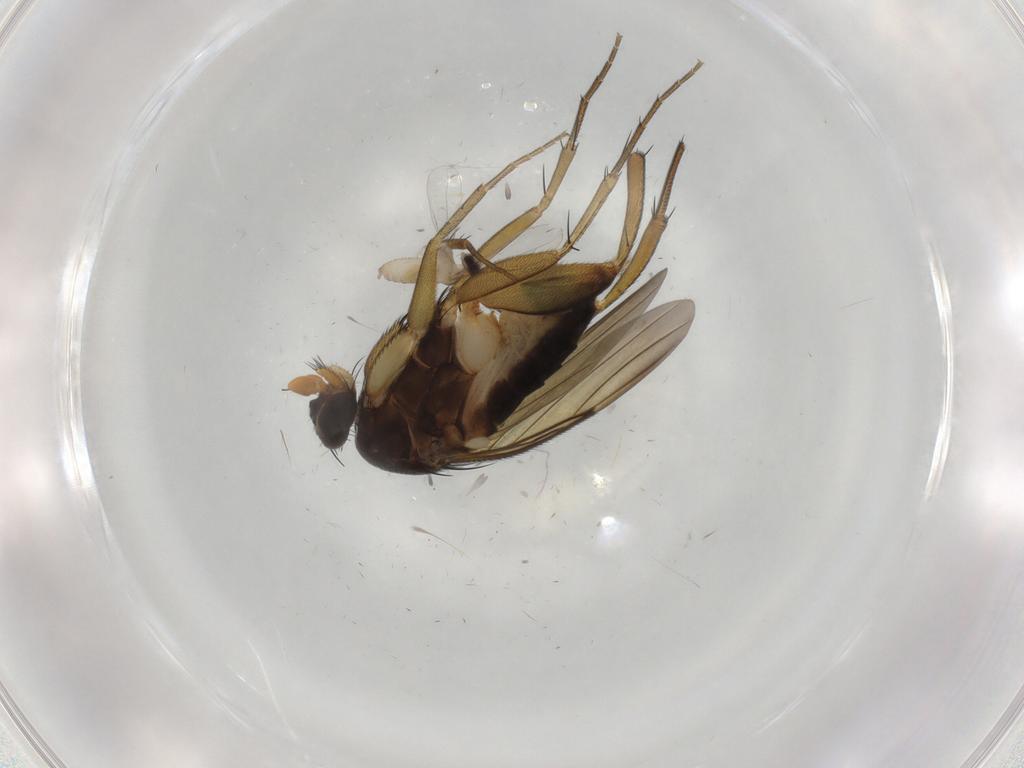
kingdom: Animalia
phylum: Arthropoda
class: Insecta
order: Diptera
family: Phoridae
